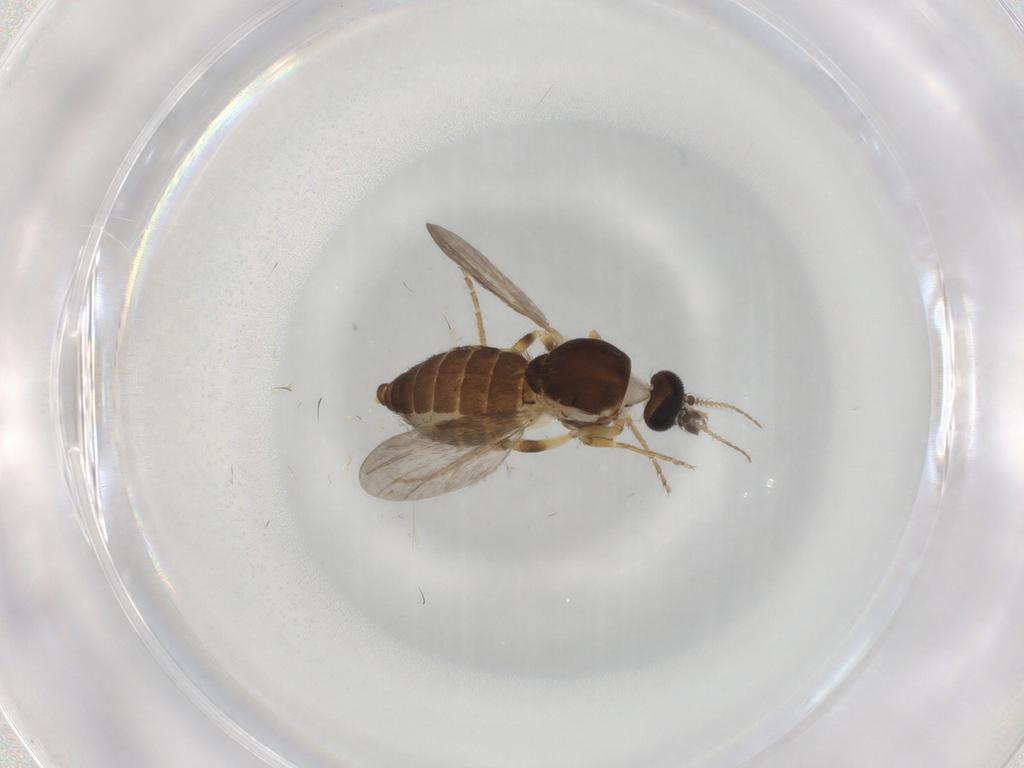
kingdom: Animalia
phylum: Arthropoda
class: Insecta
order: Diptera
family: Ceratopogonidae
